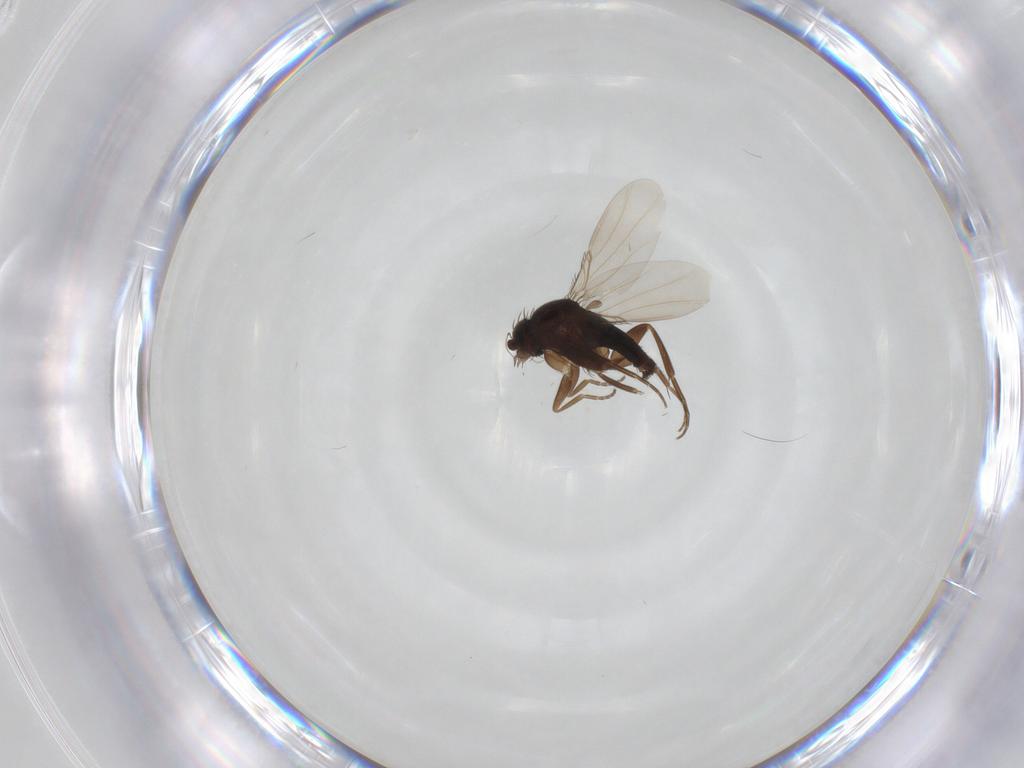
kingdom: Animalia
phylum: Arthropoda
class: Insecta
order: Diptera
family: Phoridae
